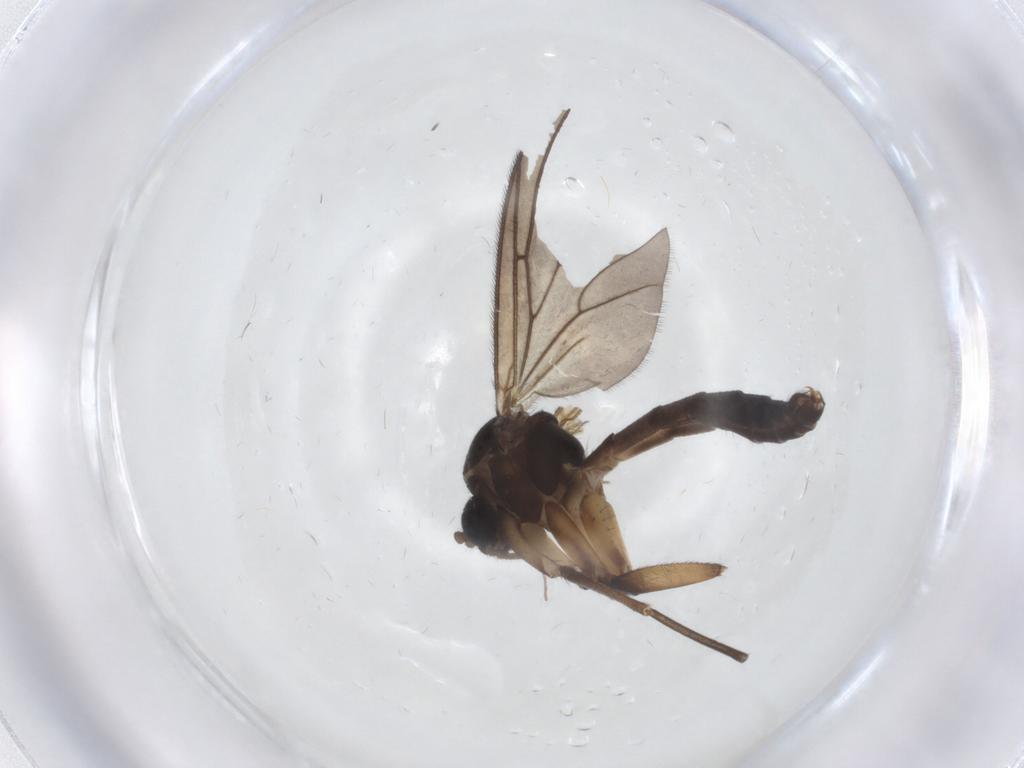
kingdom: Animalia
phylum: Arthropoda
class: Insecta
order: Diptera
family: Mycetophilidae
